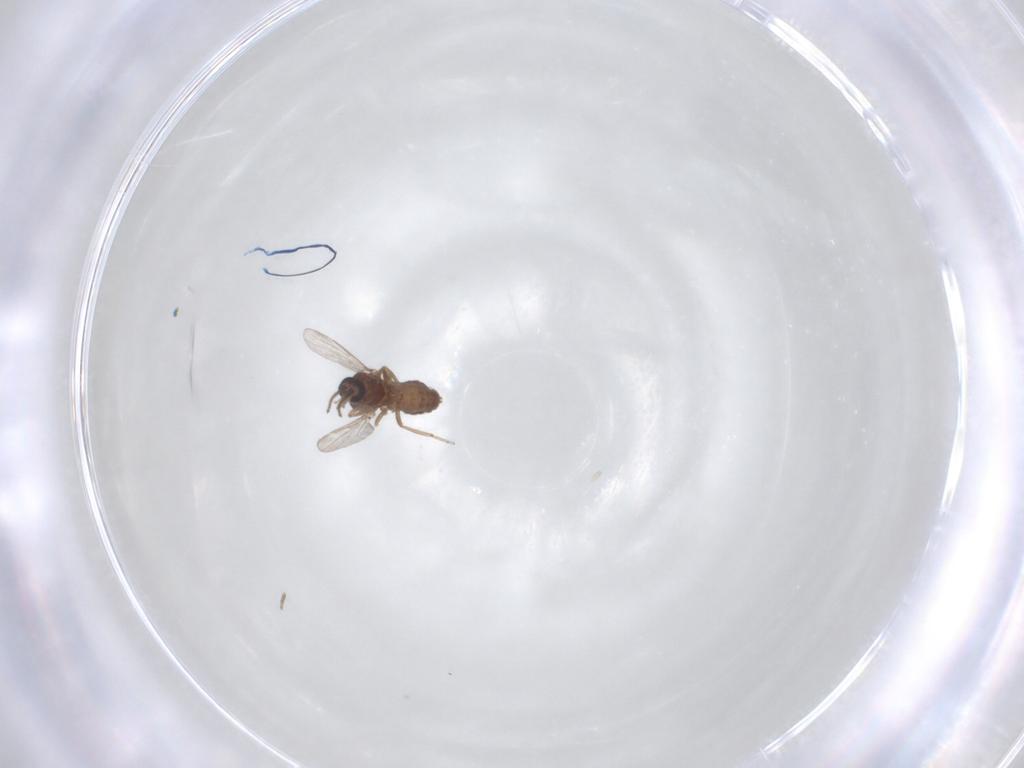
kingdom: Animalia
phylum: Arthropoda
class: Insecta
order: Diptera
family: Ceratopogonidae
